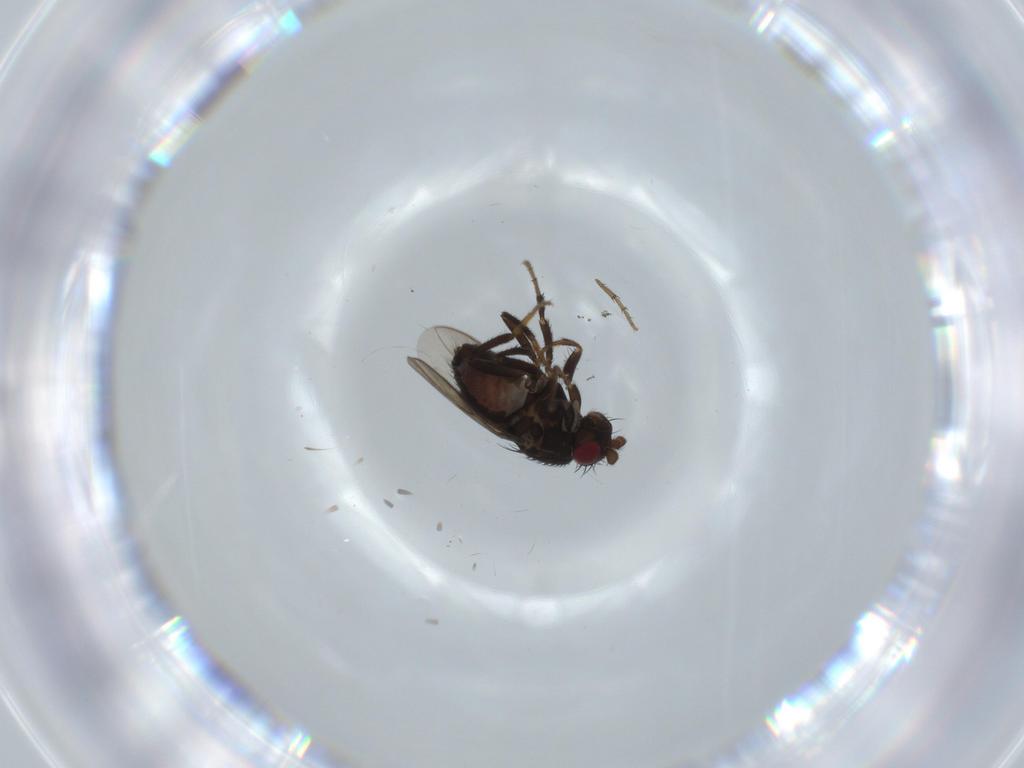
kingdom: Animalia
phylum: Arthropoda
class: Insecta
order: Diptera
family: Sphaeroceridae
